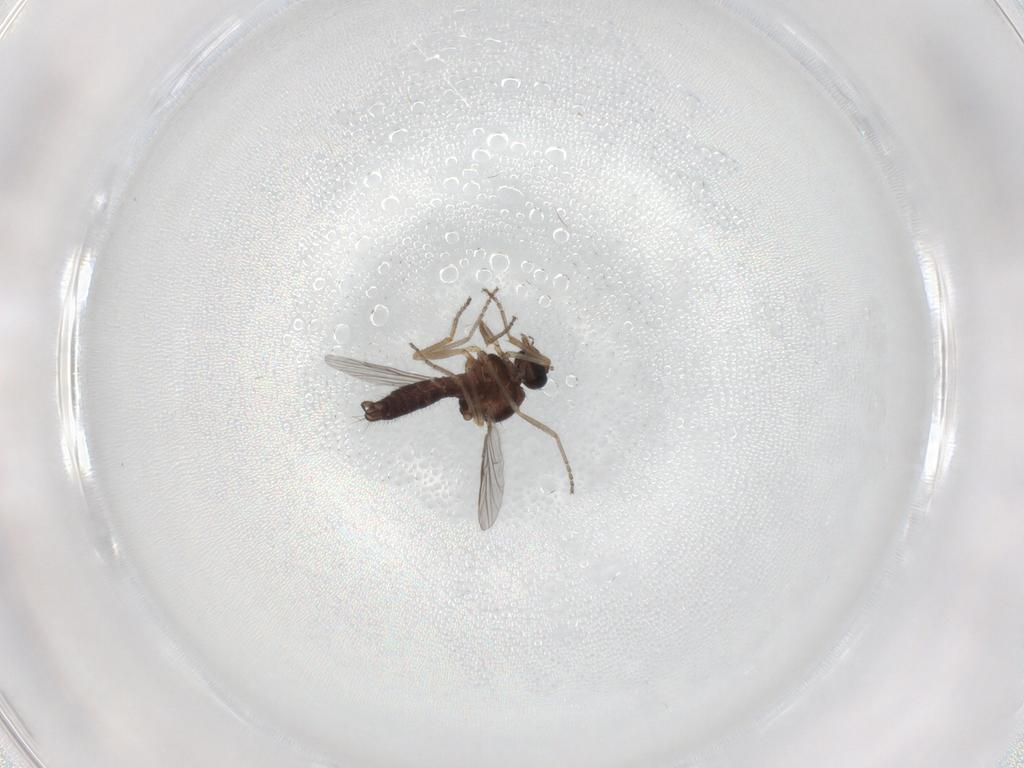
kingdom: Animalia
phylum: Arthropoda
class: Insecta
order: Diptera
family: Ceratopogonidae
